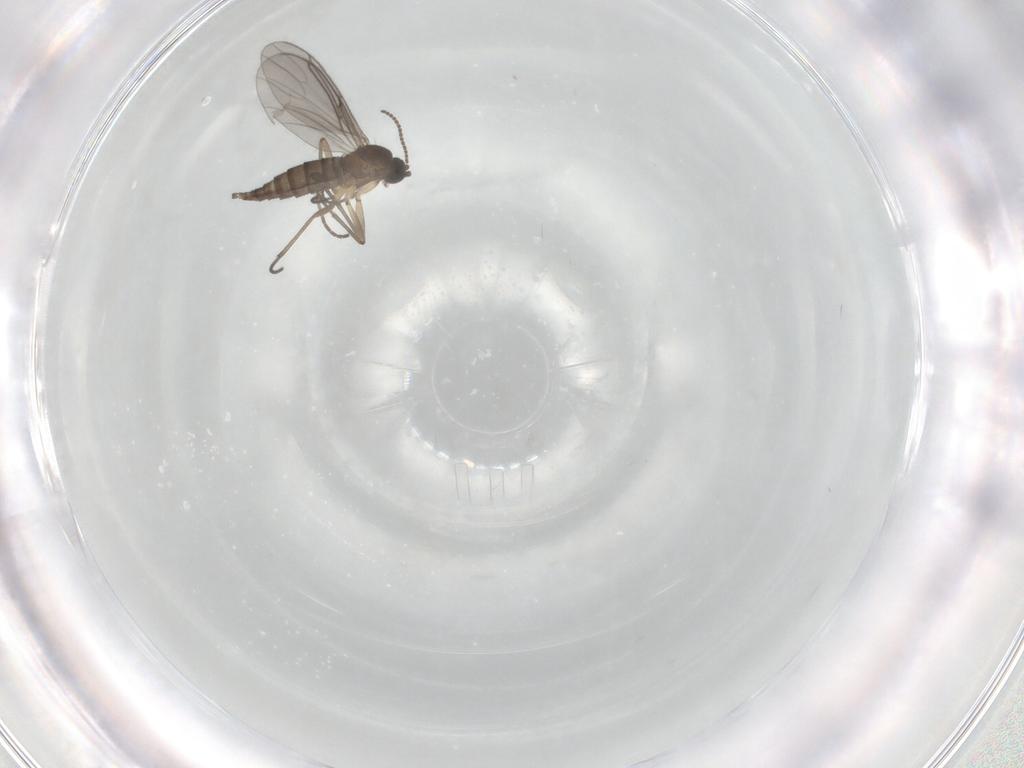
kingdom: Animalia
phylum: Arthropoda
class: Insecta
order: Diptera
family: Sciaridae
